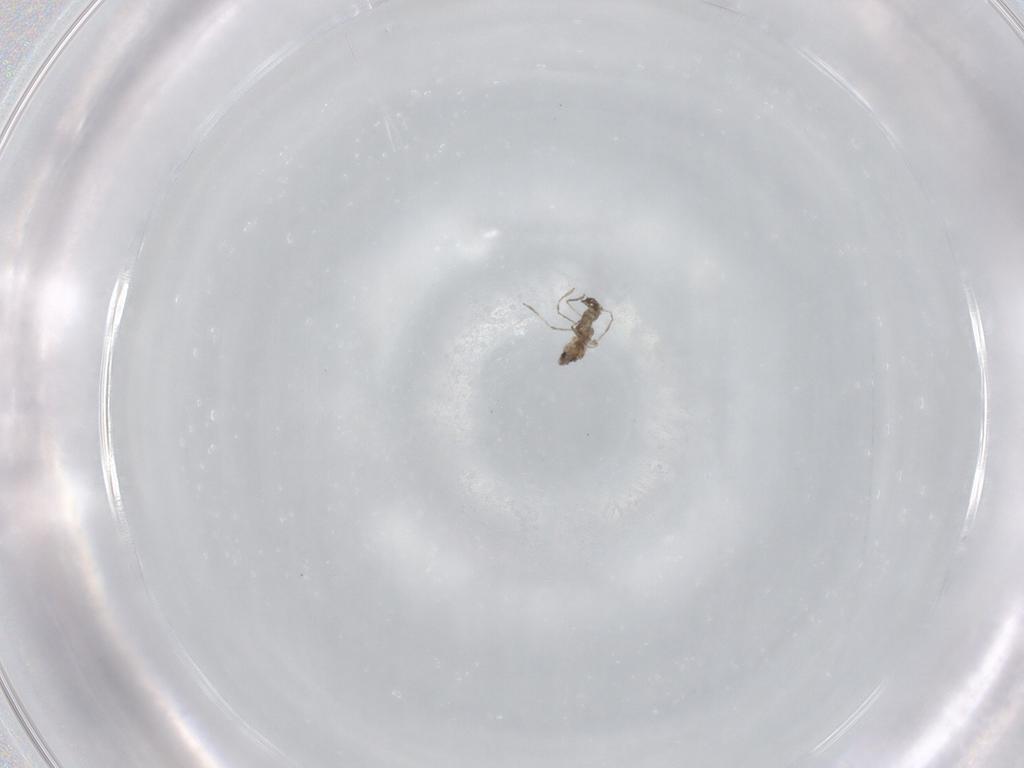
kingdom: Animalia
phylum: Arthropoda
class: Insecta
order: Diptera
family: Cecidomyiidae
